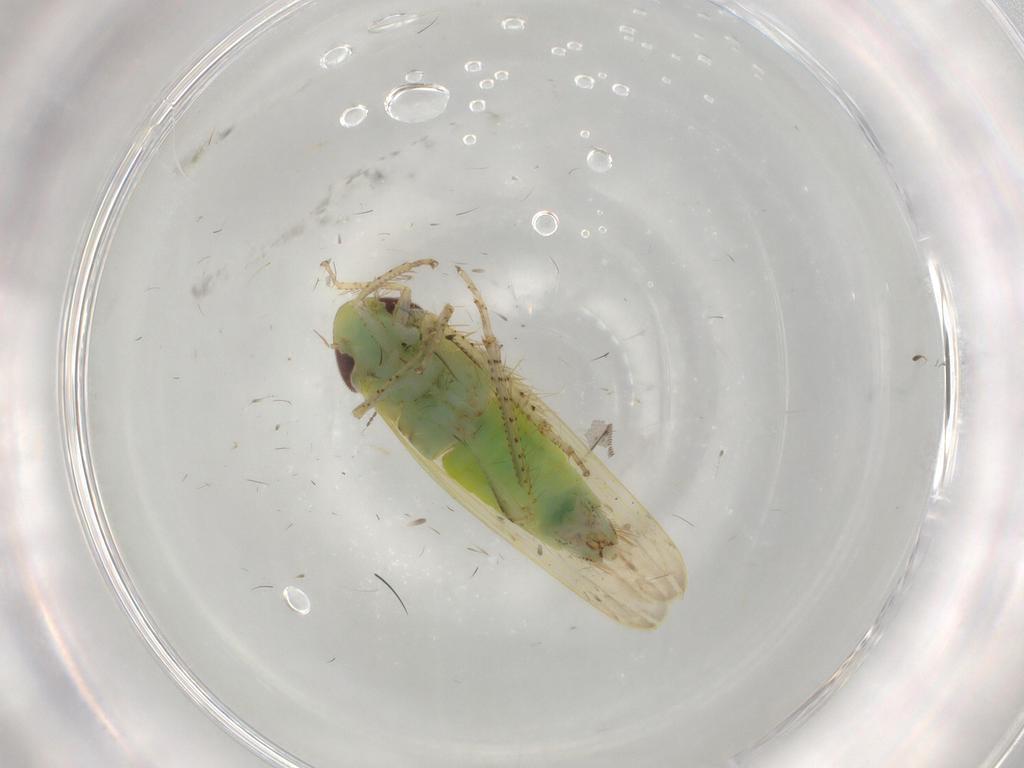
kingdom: Animalia
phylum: Arthropoda
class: Insecta
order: Hemiptera
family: Cicadellidae
